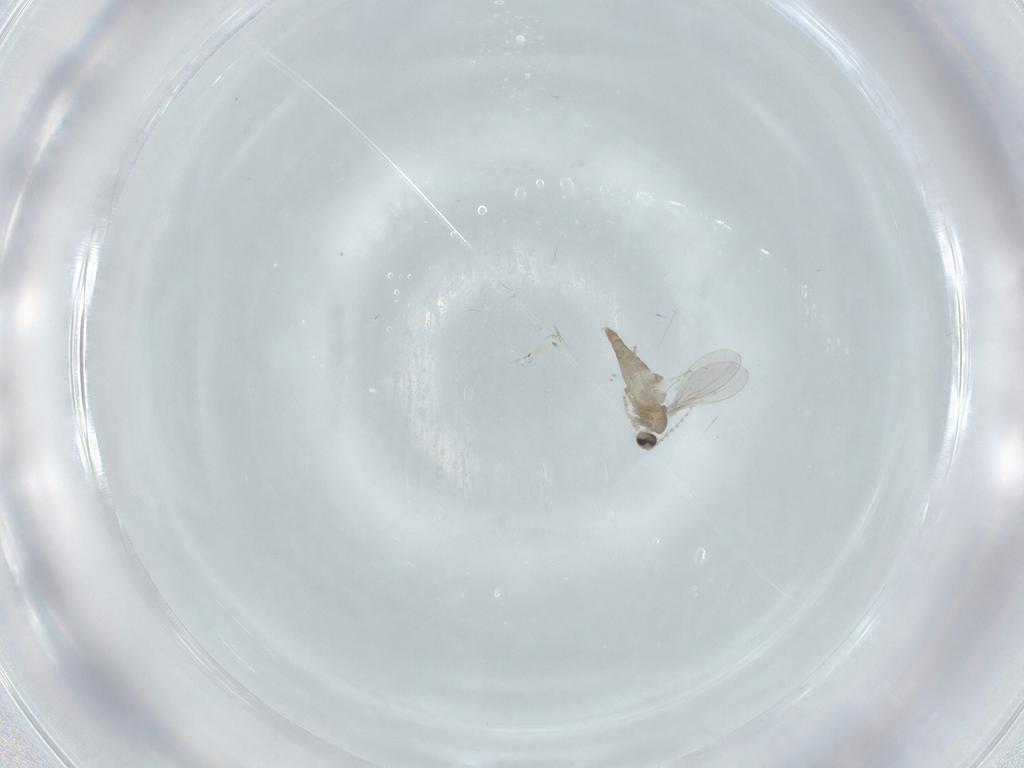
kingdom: Animalia
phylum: Arthropoda
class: Insecta
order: Diptera
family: Cecidomyiidae
